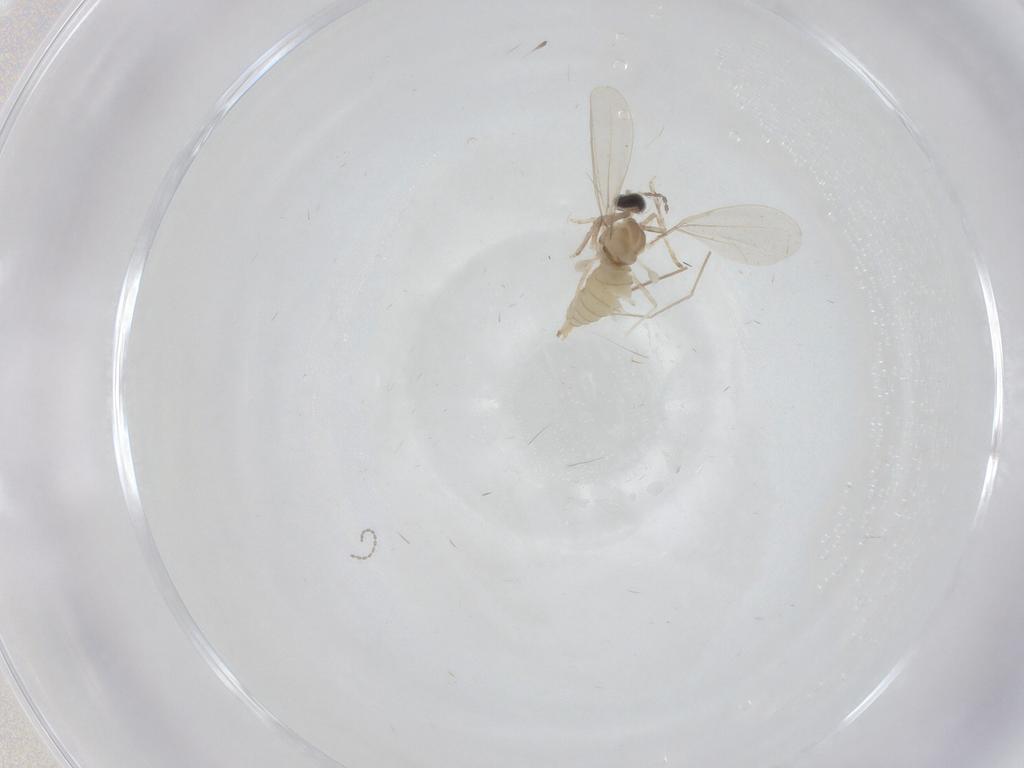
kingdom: Animalia
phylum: Arthropoda
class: Insecta
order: Diptera
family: Cecidomyiidae
